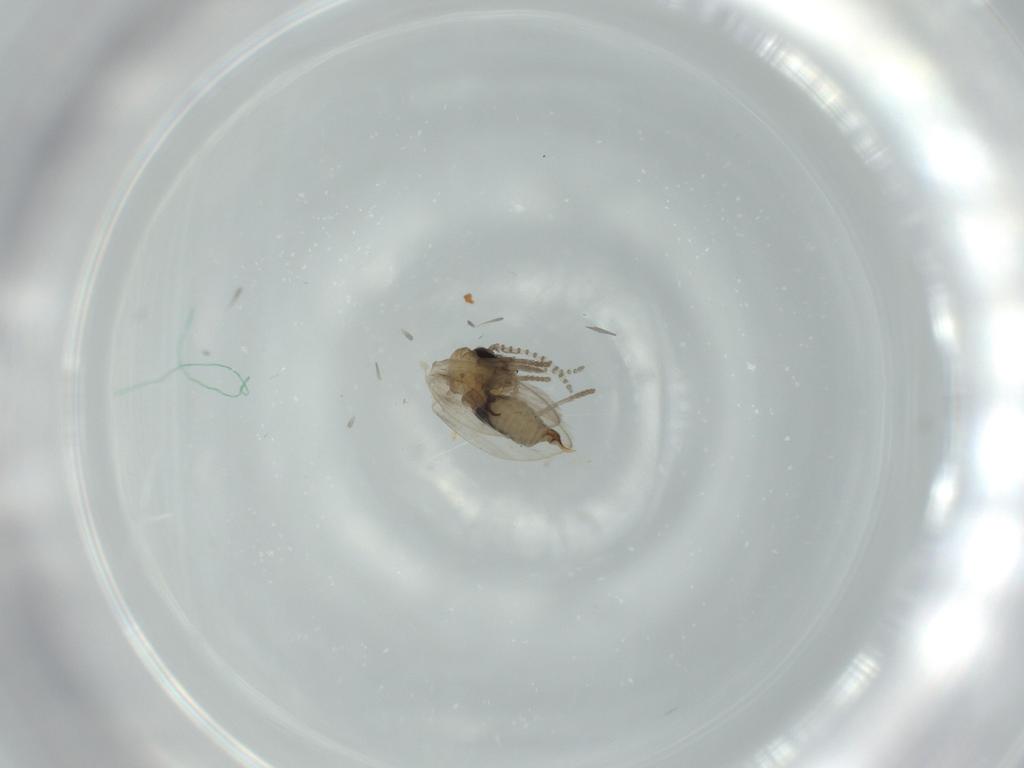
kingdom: Animalia
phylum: Arthropoda
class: Insecta
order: Diptera
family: Psychodidae
